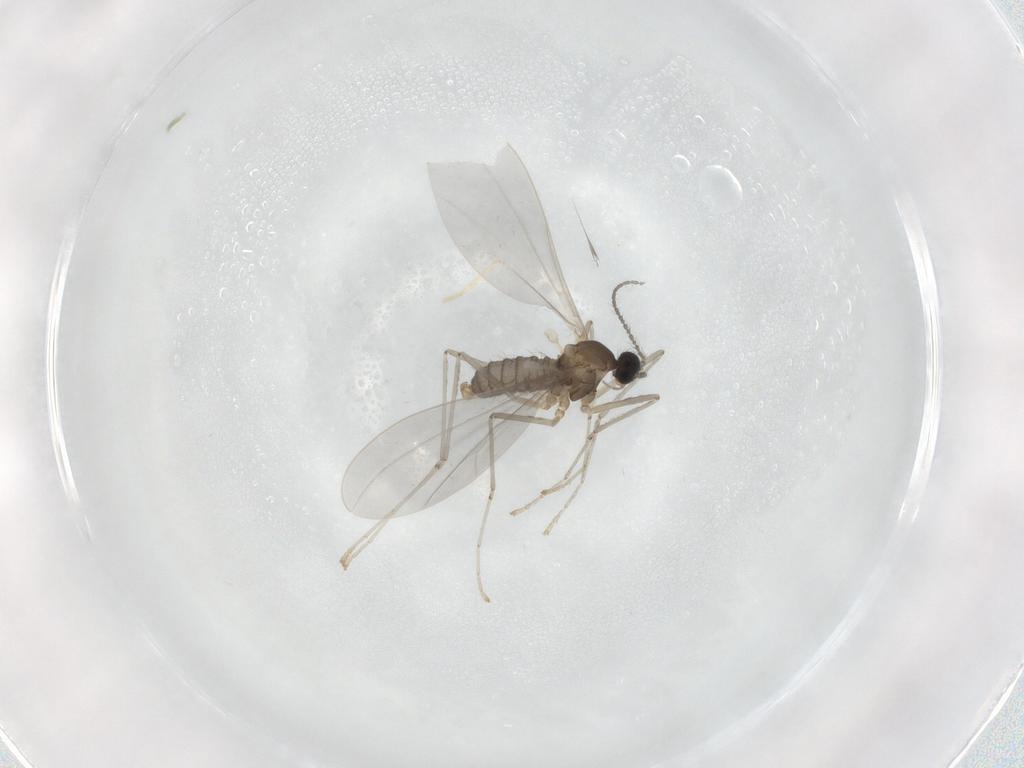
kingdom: Animalia
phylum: Arthropoda
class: Insecta
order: Diptera
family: Cecidomyiidae
